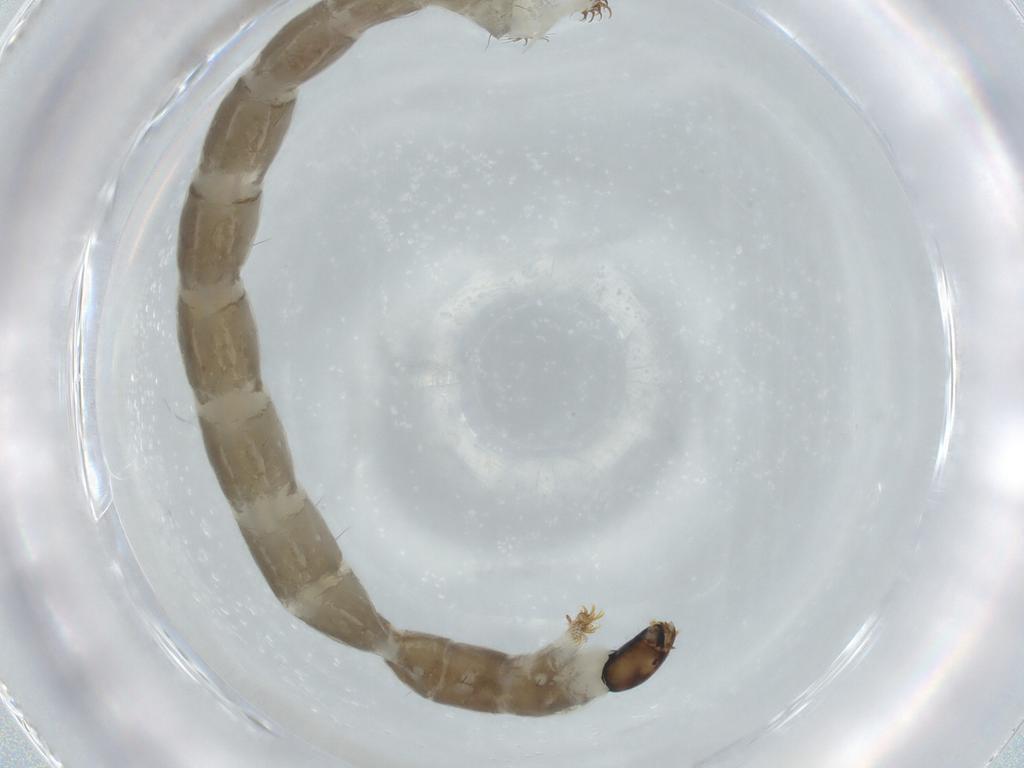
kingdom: Animalia
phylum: Arthropoda
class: Insecta
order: Diptera
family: Chironomidae
